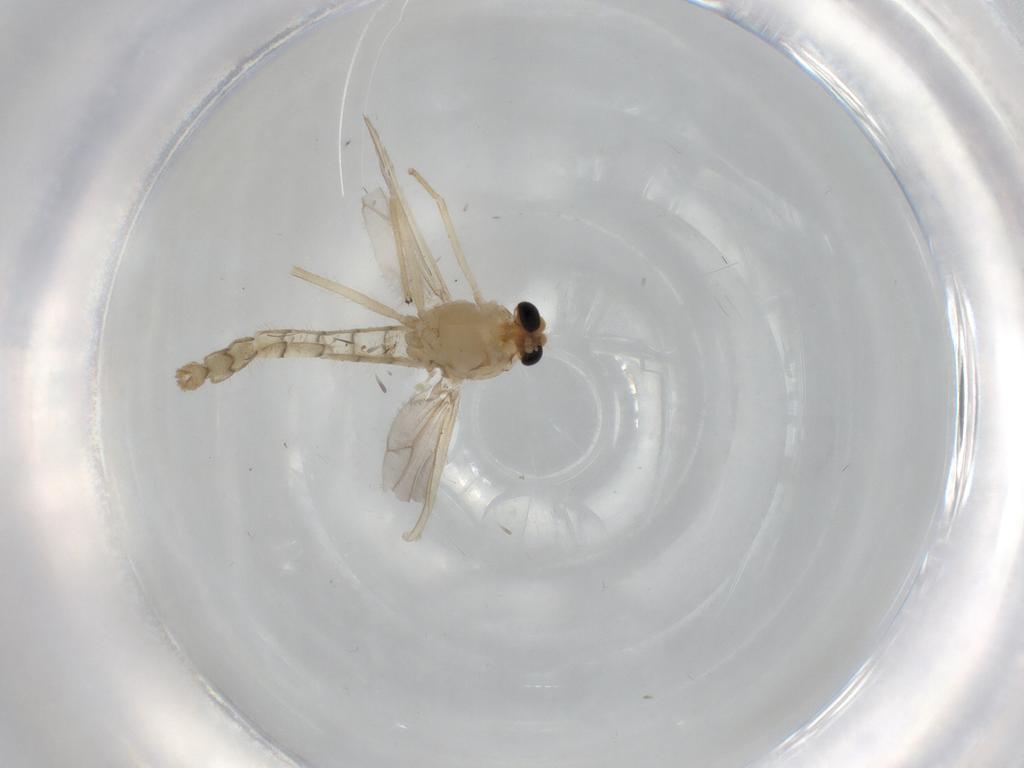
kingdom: Animalia
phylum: Arthropoda
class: Insecta
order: Diptera
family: Chironomidae
